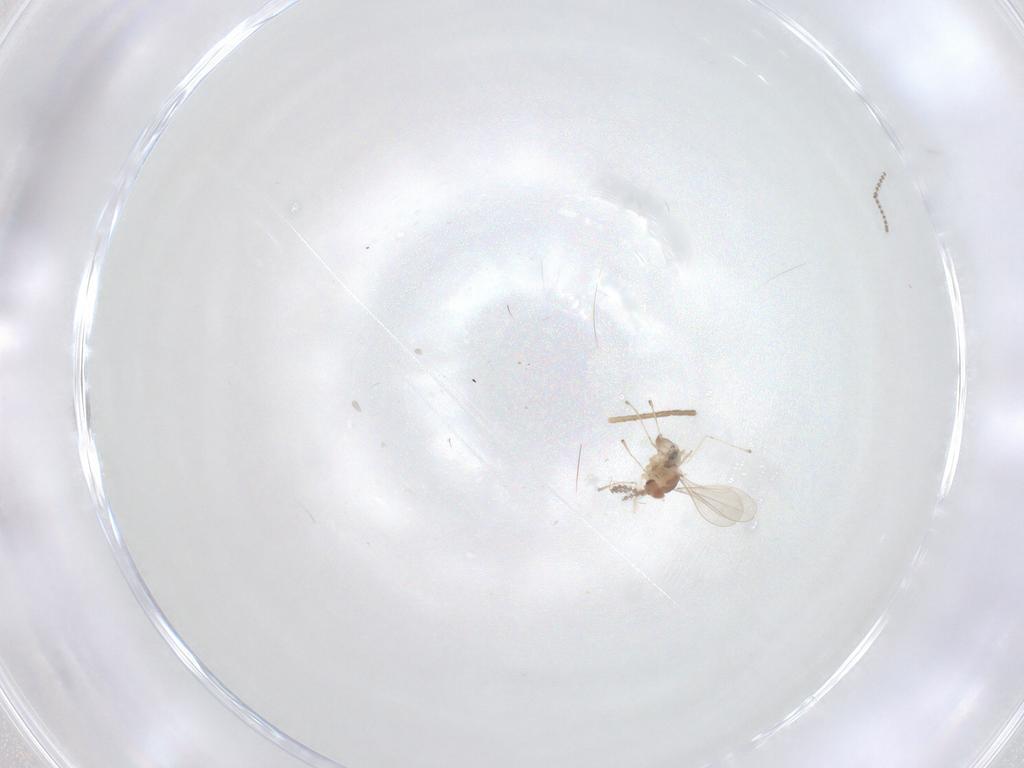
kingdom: Animalia
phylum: Arthropoda
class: Insecta
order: Diptera
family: Cecidomyiidae
